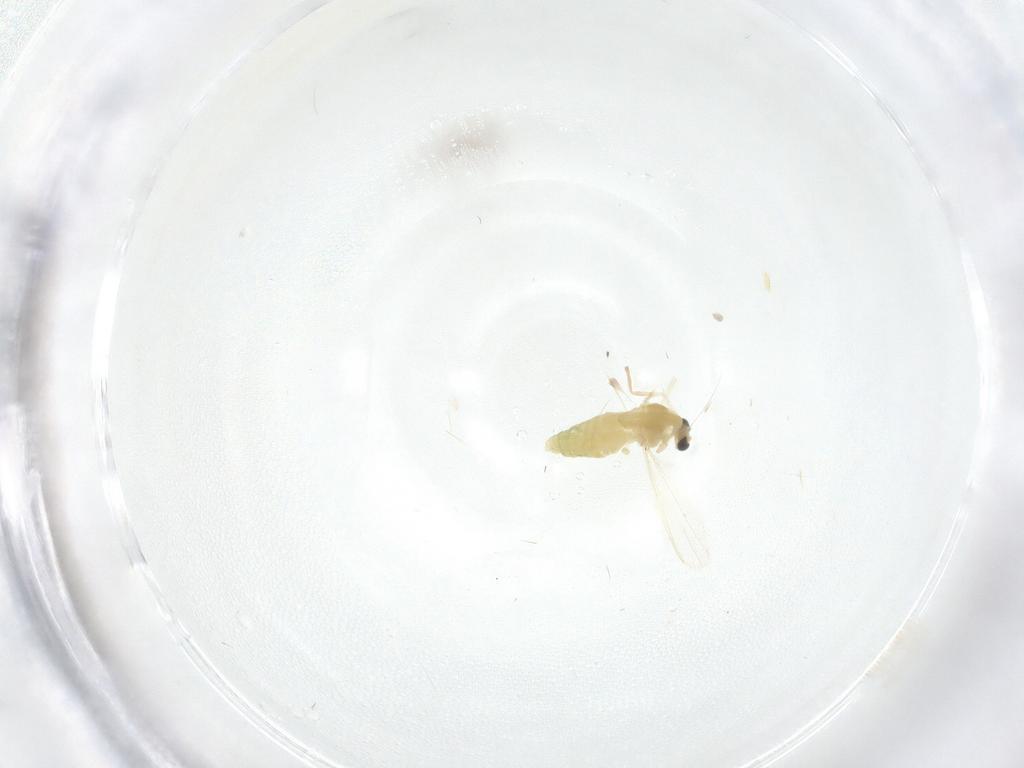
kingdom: Animalia
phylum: Arthropoda
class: Insecta
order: Diptera
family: Chironomidae
